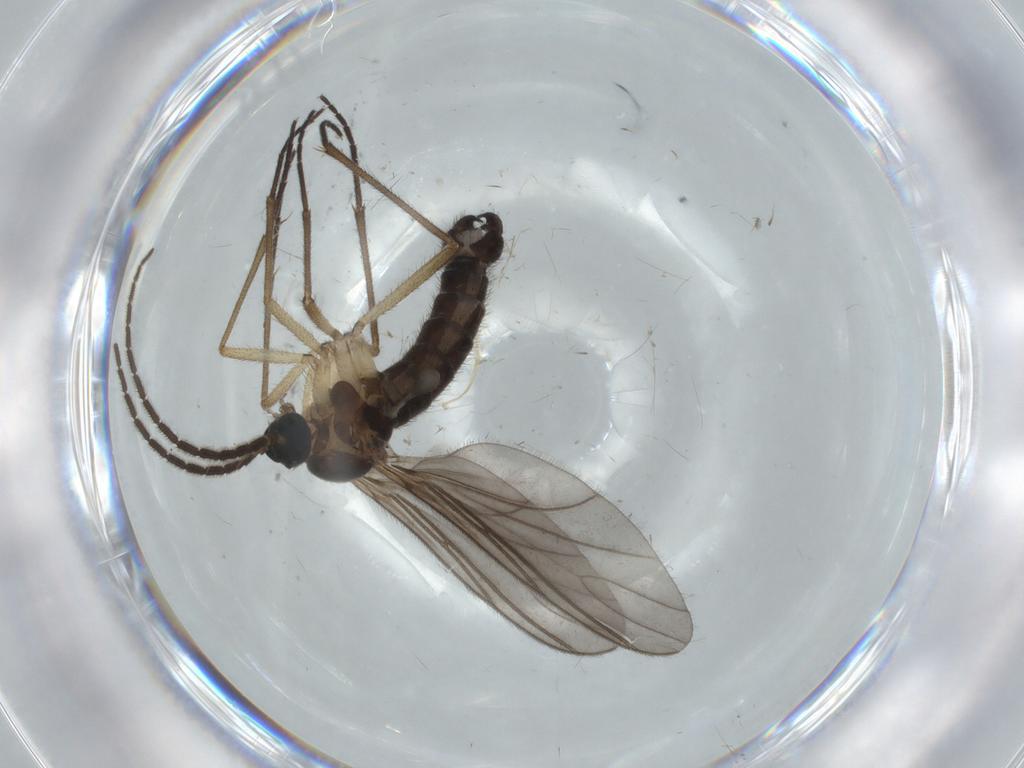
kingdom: Animalia
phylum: Arthropoda
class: Insecta
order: Diptera
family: Sciaridae
